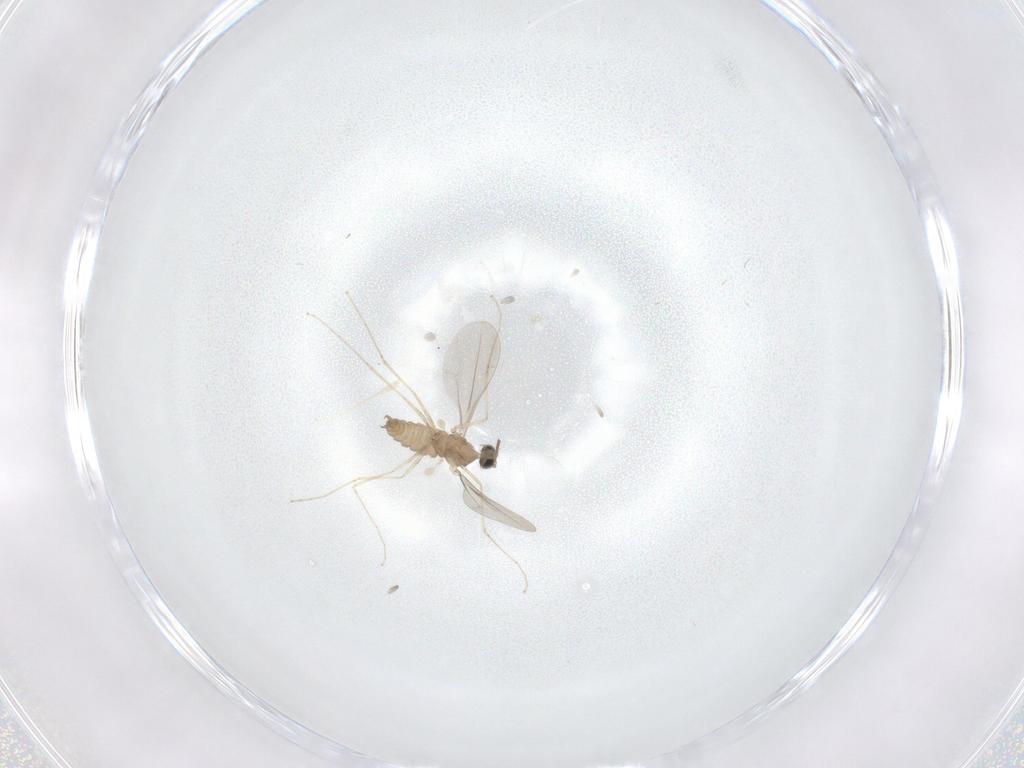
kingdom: Animalia
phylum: Arthropoda
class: Insecta
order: Diptera
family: Cecidomyiidae
